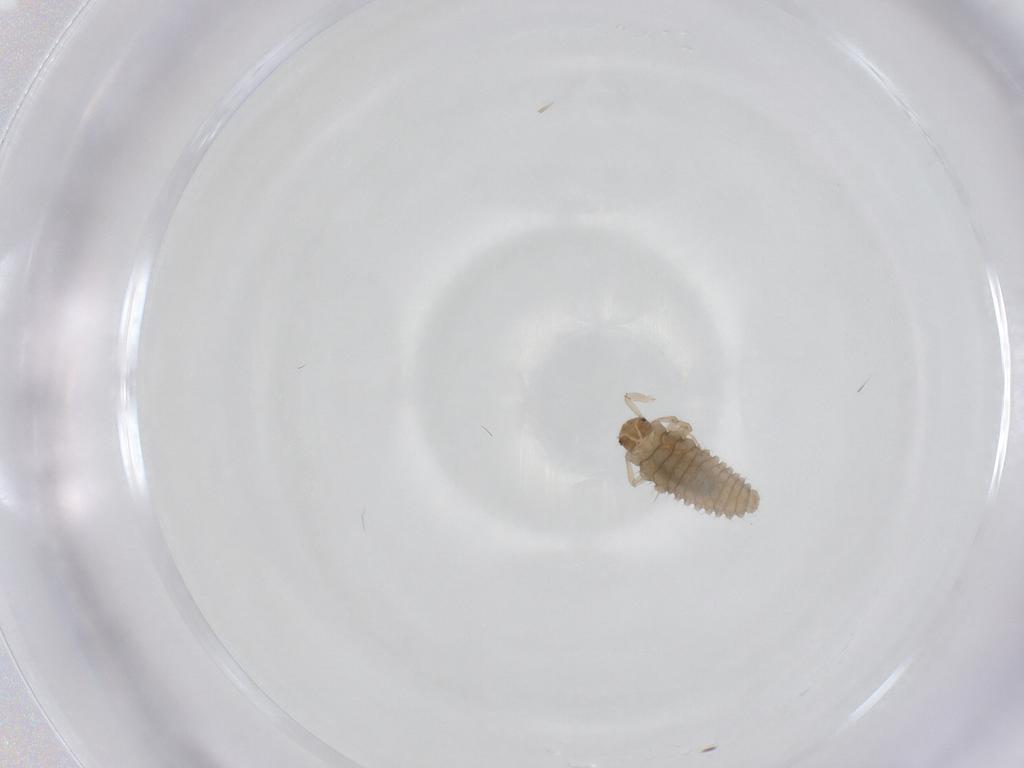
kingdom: Animalia
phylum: Arthropoda
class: Insecta
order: Coleoptera
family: Coccinellidae
